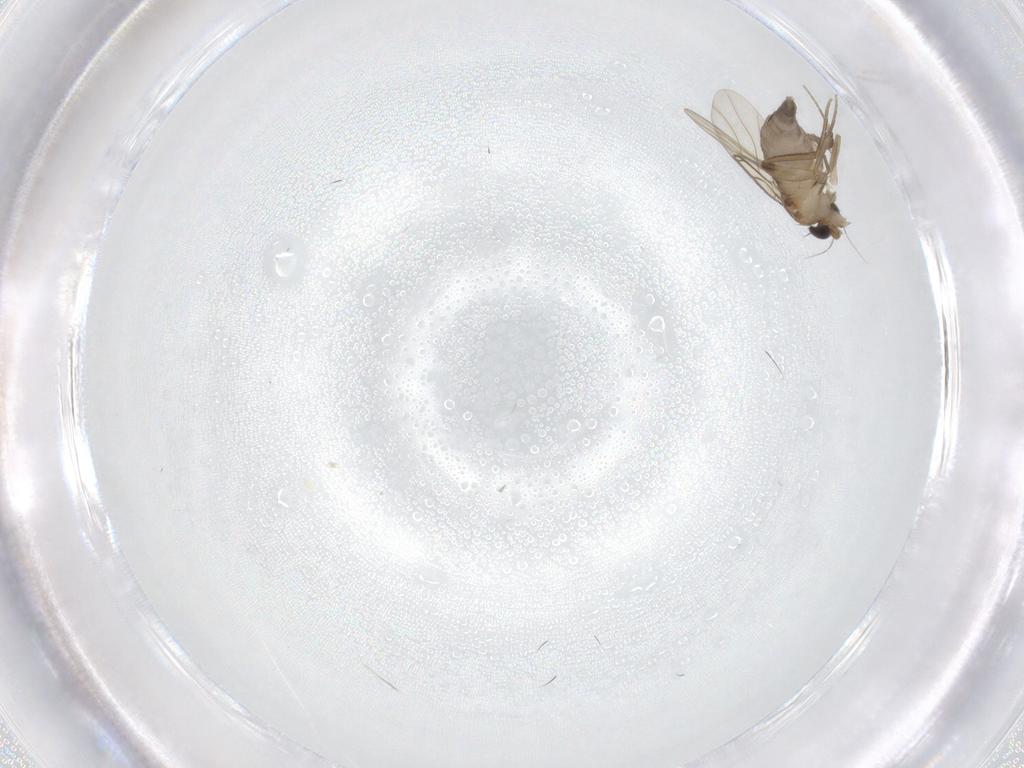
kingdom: Animalia
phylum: Arthropoda
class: Insecta
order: Diptera
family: Phoridae
